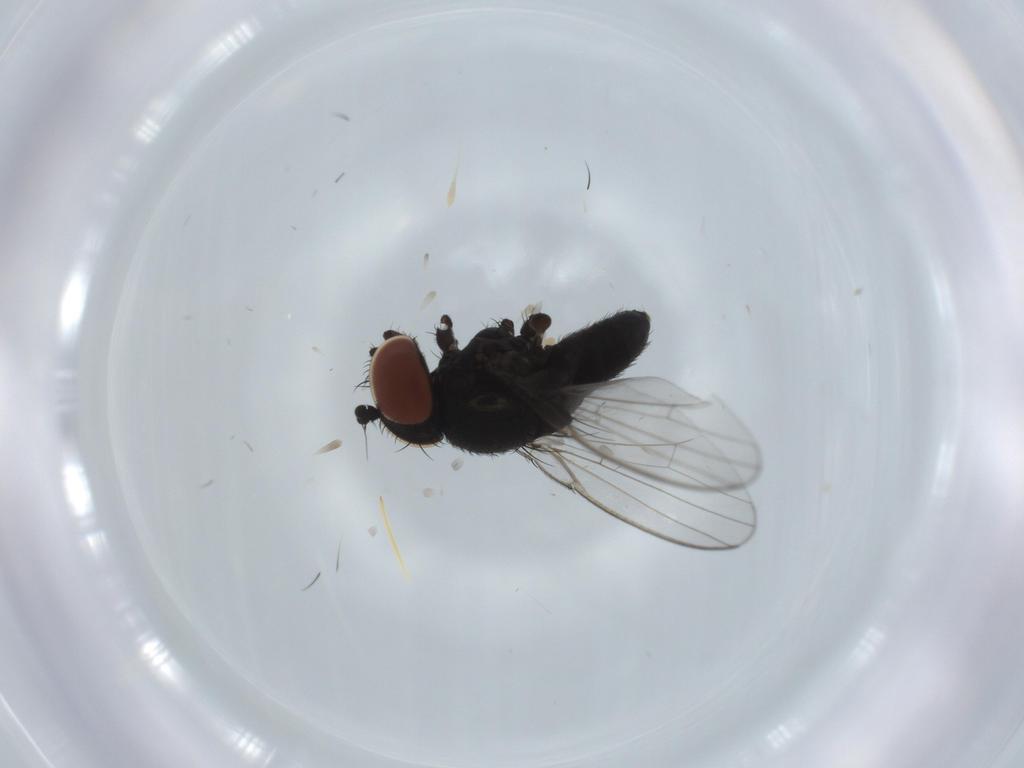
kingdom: Animalia
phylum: Arthropoda
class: Insecta
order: Diptera
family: Milichiidae
